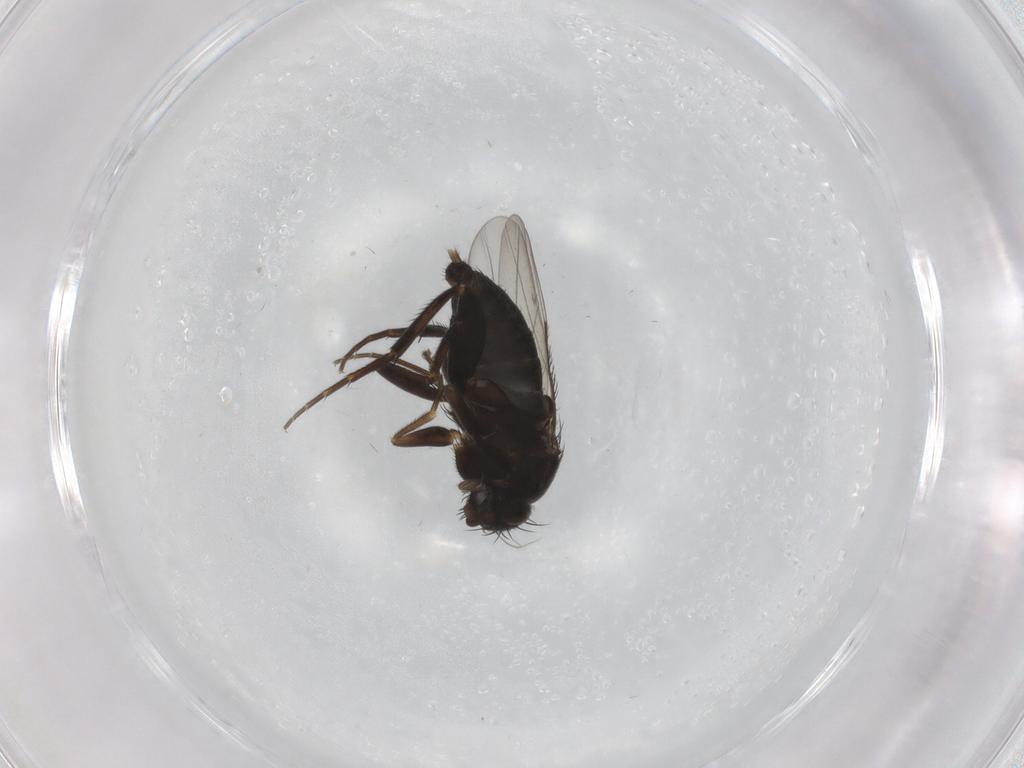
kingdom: Animalia
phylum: Arthropoda
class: Insecta
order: Diptera
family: Phoridae
